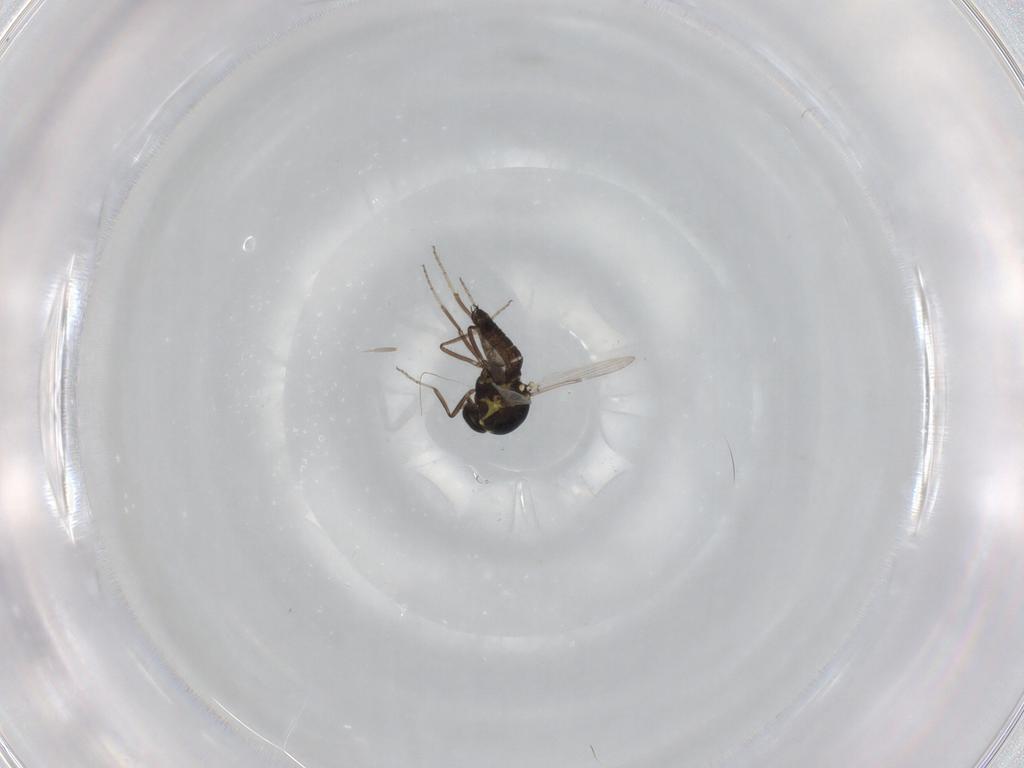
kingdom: Animalia
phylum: Arthropoda
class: Insecta
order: Diptera
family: Ceratopogonidae
